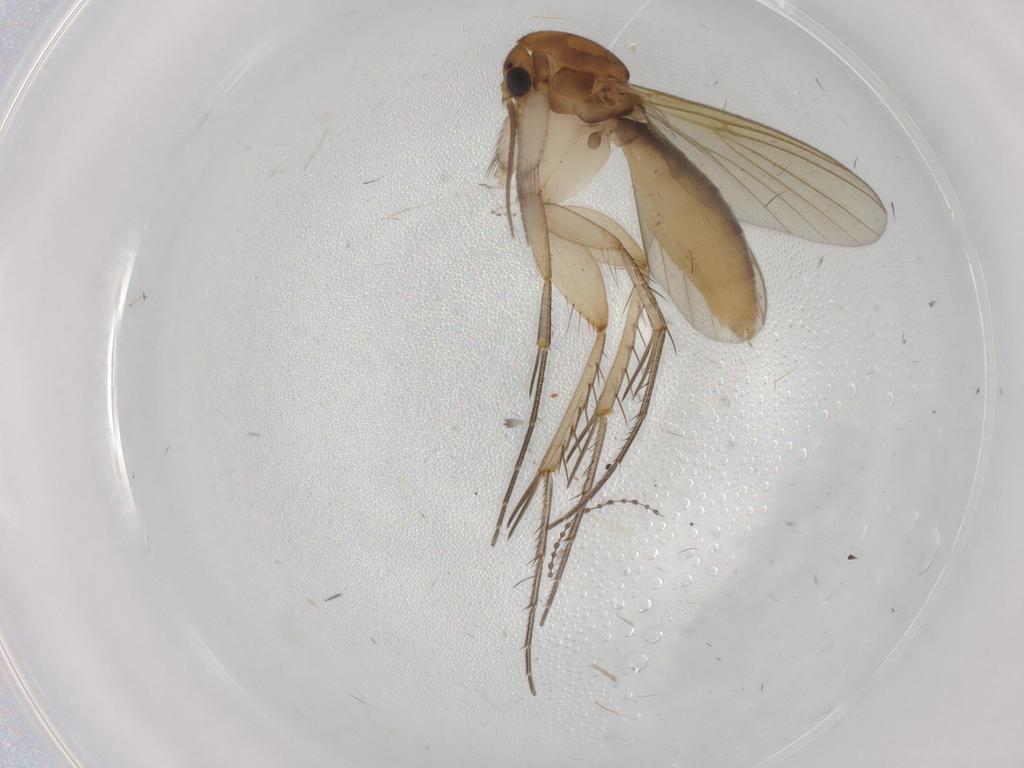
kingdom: Animalia
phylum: Arthropoda
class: Insecta
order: Diptera
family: Mycetophilidae
